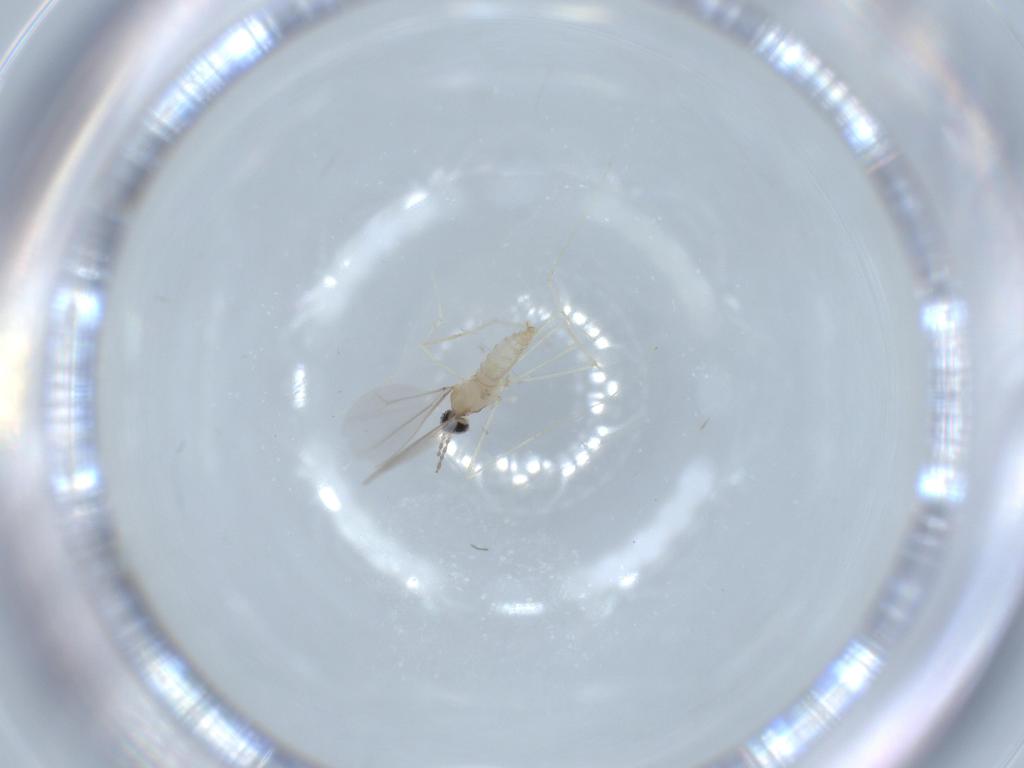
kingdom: Animalia
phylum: Arthropoda
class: Insecta
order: Diptera
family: Cecidomyiidae
